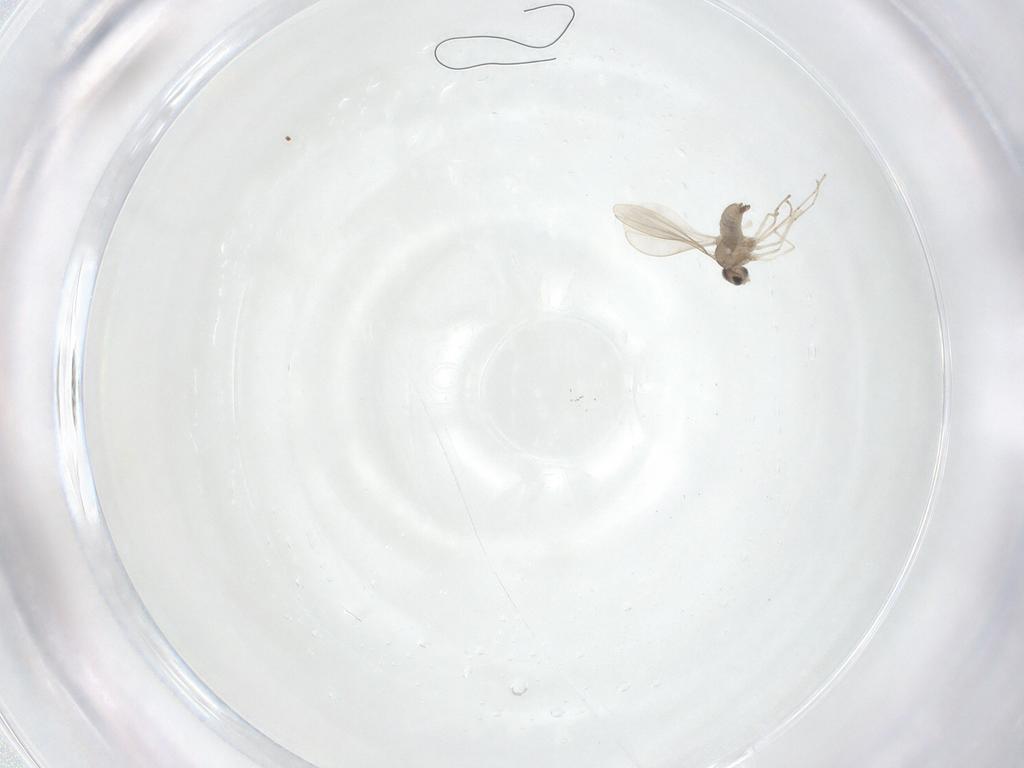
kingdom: Animalia
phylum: Arthropoda
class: Insecta
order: Diptera
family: Cecidomyiidae
